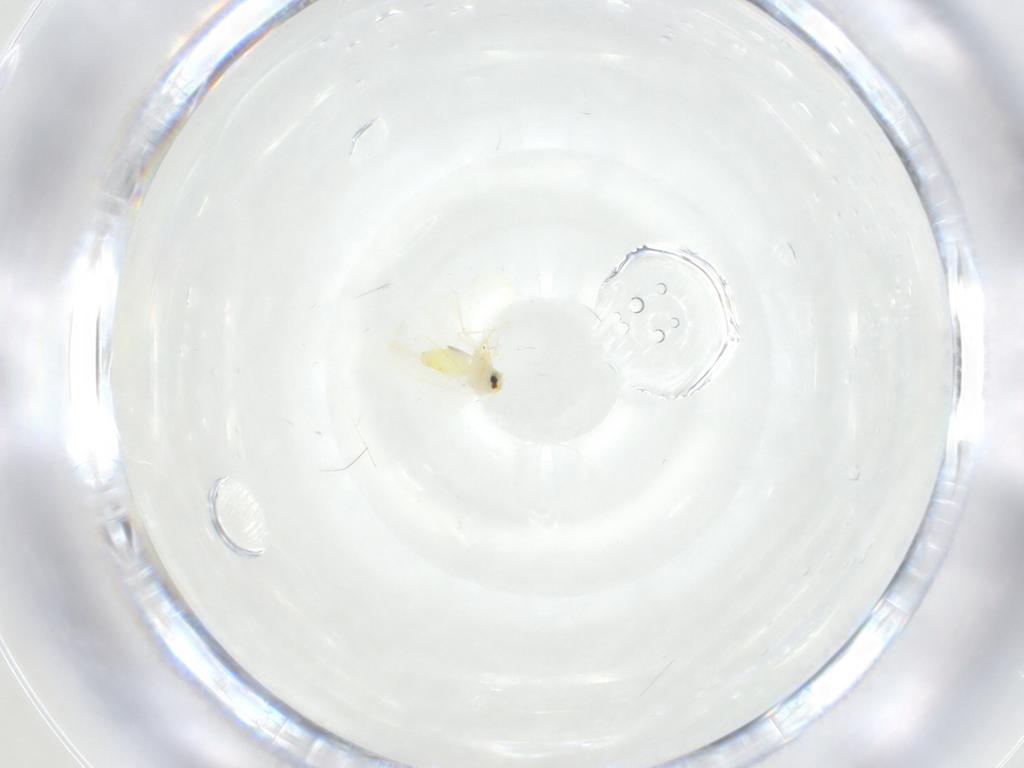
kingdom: Animalia
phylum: Arthropoda
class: Insecta
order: Hemiptera
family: Aleyrodidae
